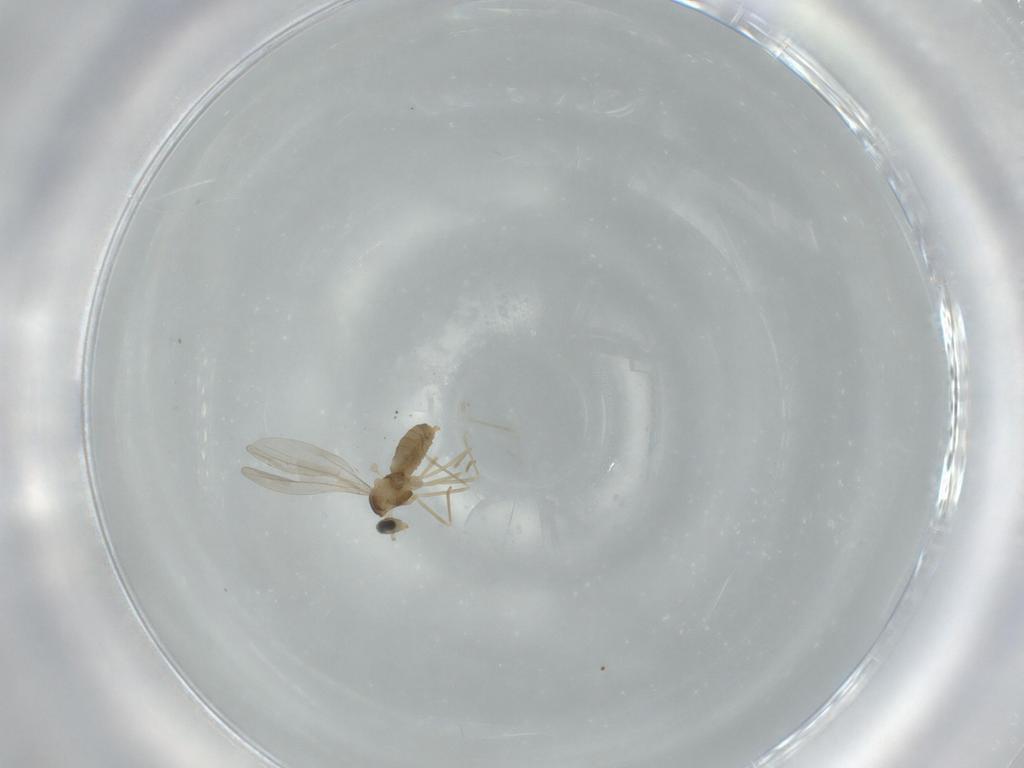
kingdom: Animalia
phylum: Arthropoda
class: Insecta
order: Diptera
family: Cecidomyiidae
